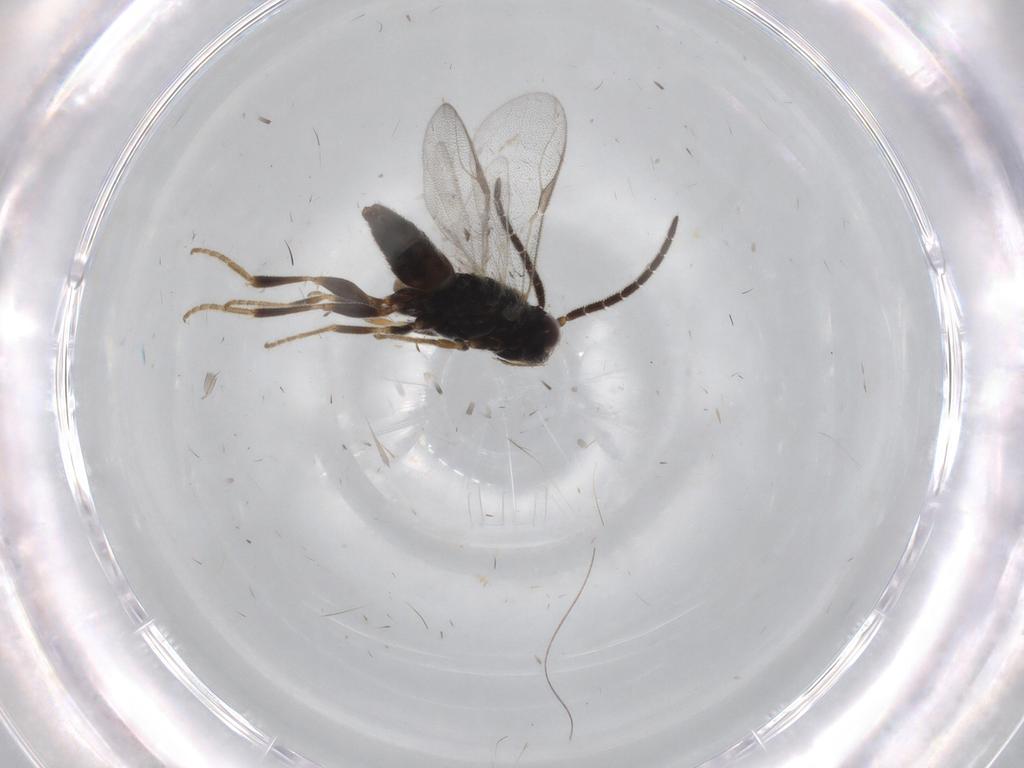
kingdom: Animalia
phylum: Arthropoda
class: Insecta
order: Hymenoptera
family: Dryinidae
